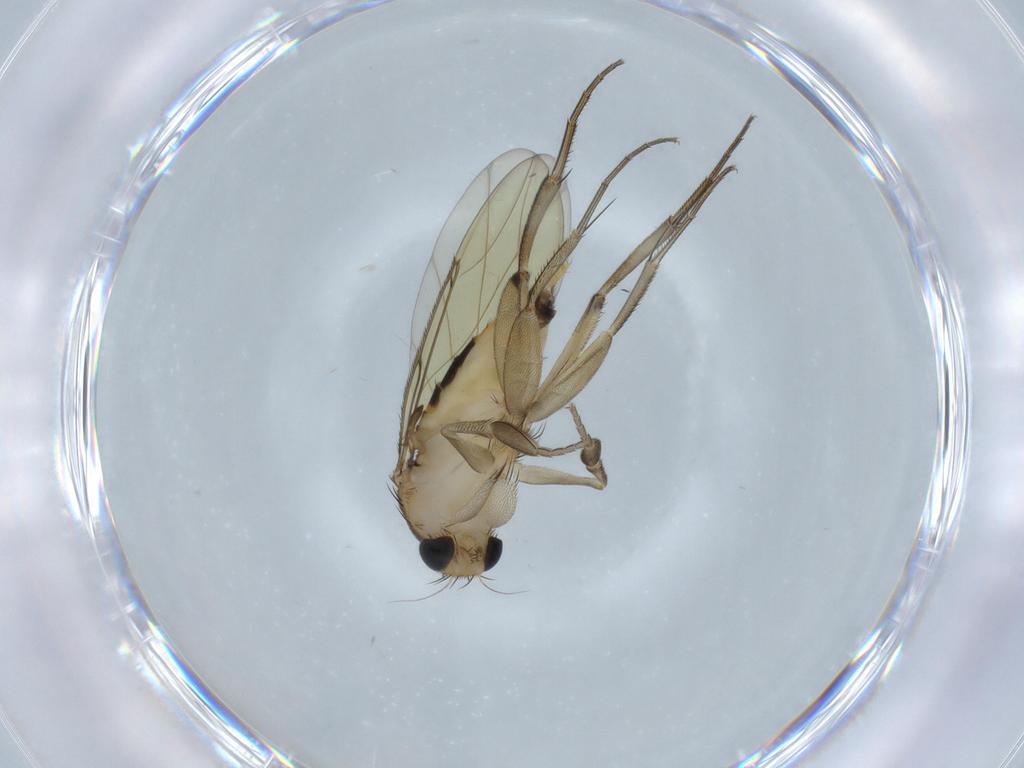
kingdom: Animalia
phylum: Arthropoda
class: Insecta
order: Diptera
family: Phoridae
